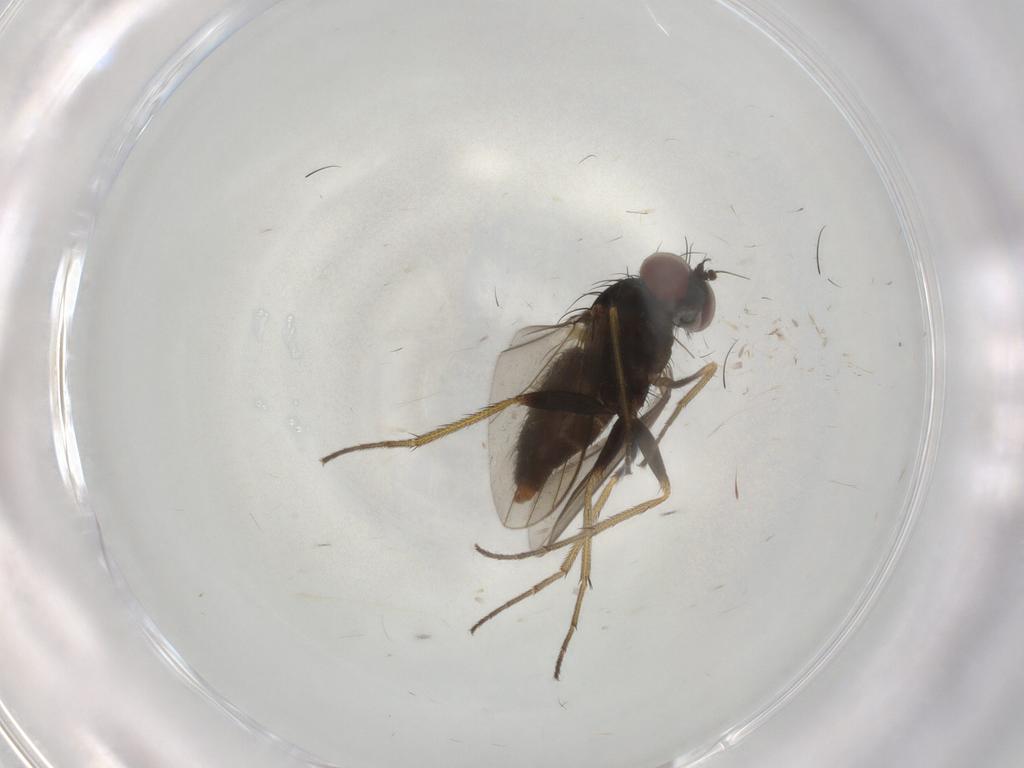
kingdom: Animalia
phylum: Arthropoda
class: Insecta
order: Diptera
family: Dolichopodidae
